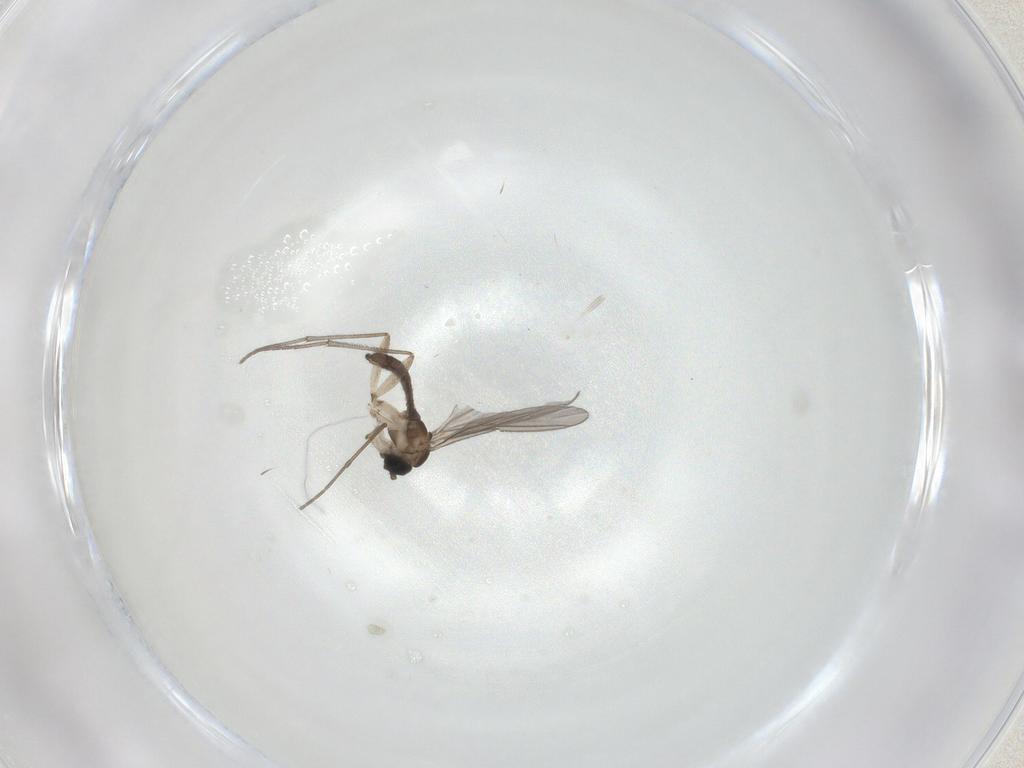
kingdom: Animalia
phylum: Arthropoda
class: Insecta
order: Diptera
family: Sciaridae
